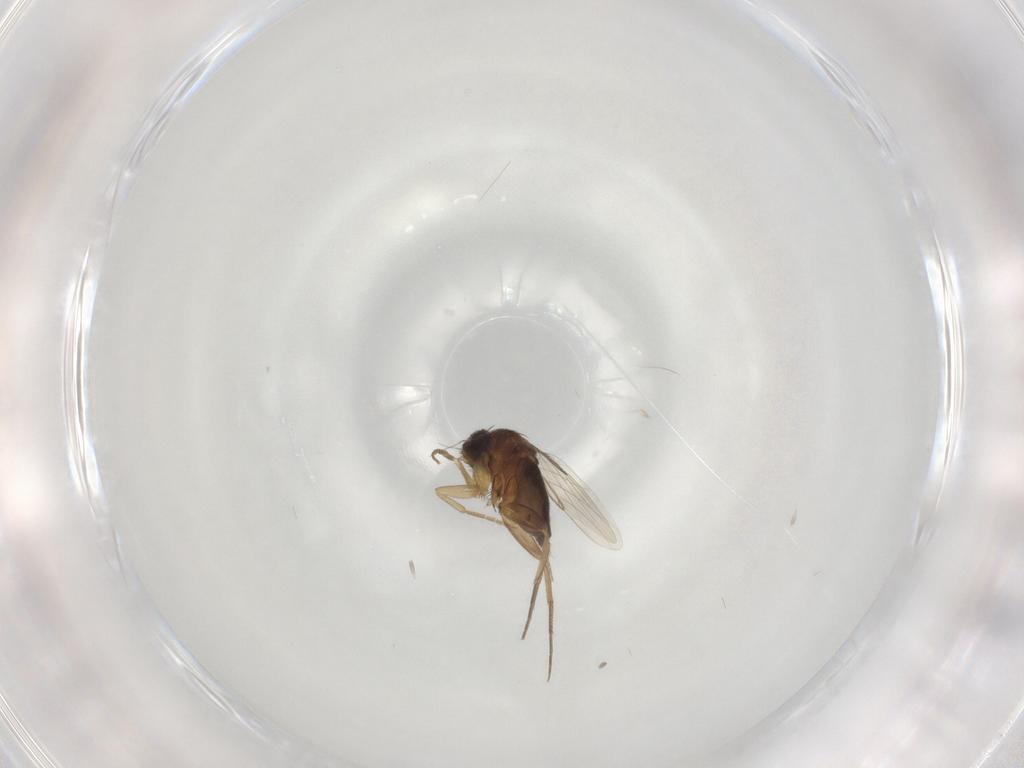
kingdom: Animalia
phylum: Arthropoda
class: Insecta
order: Diptera
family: Phoridae
